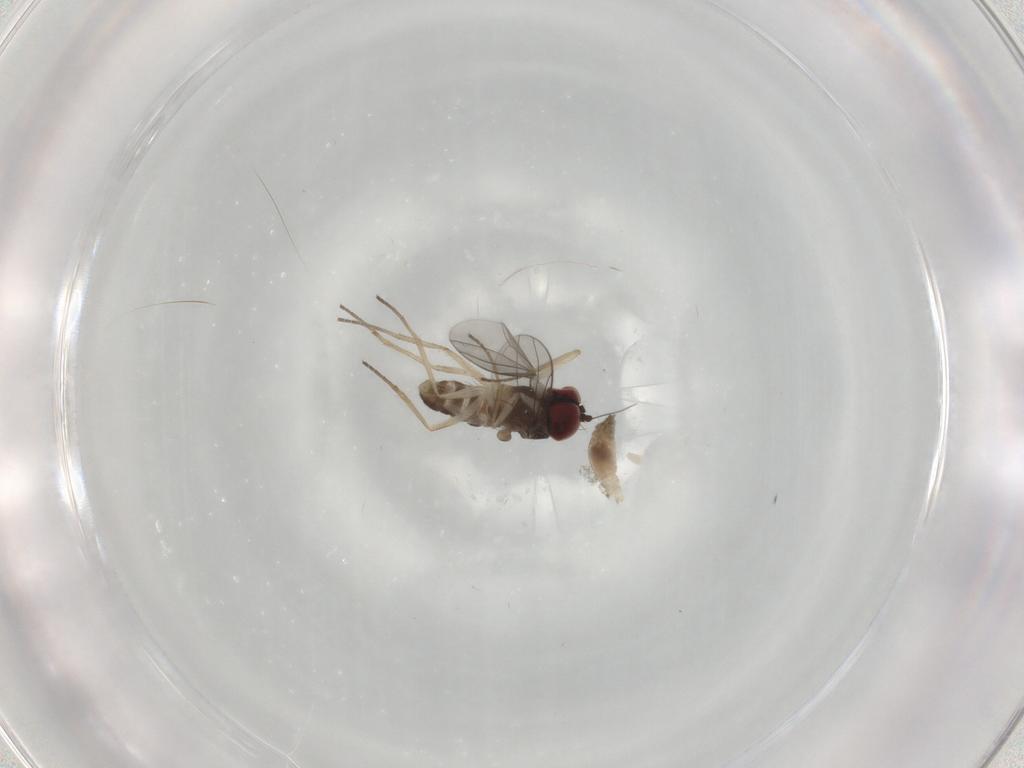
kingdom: Animalia
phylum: Arthropoda
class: Insecta
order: Diptera
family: Dolichopodidae
